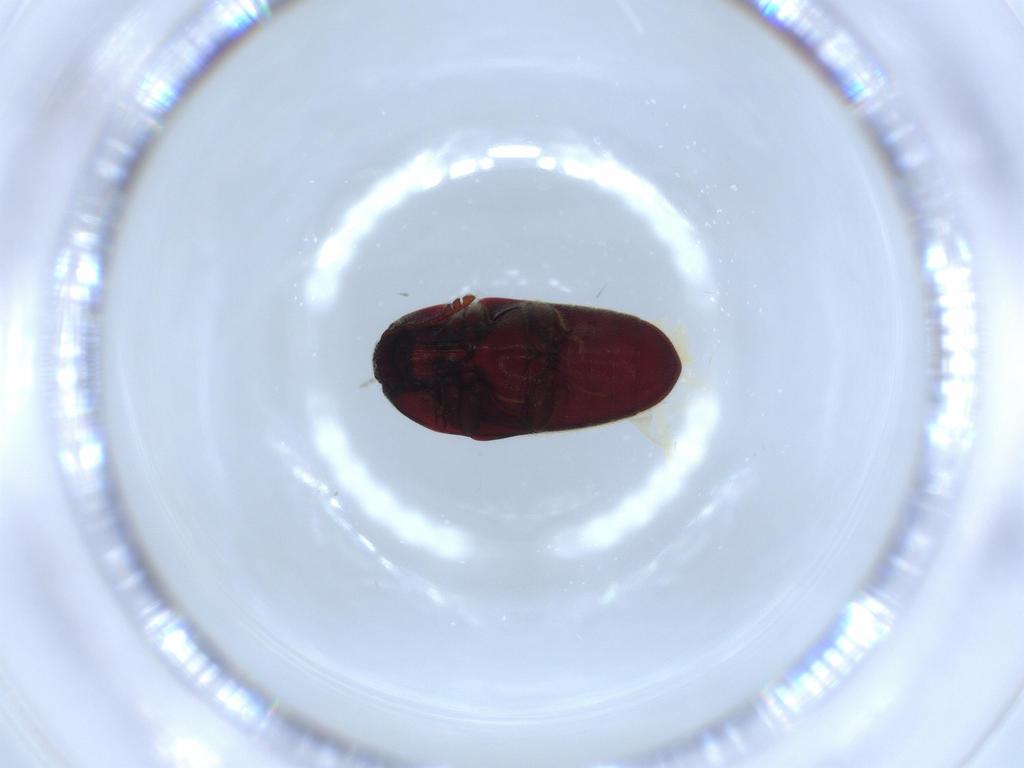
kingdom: Animalia
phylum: Arthropoda
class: Insecta
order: Coleoptera
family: Throscidae
